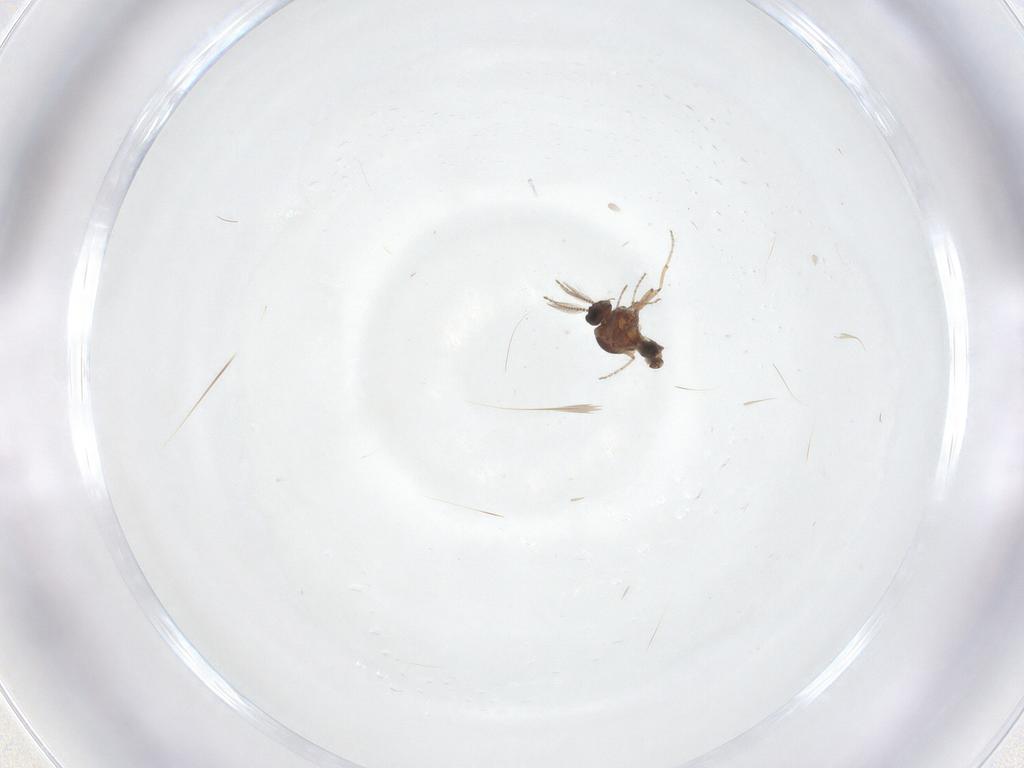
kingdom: Animalia
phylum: Arthropoda
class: Insecta
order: Diptera
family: Ceratopogonidae
